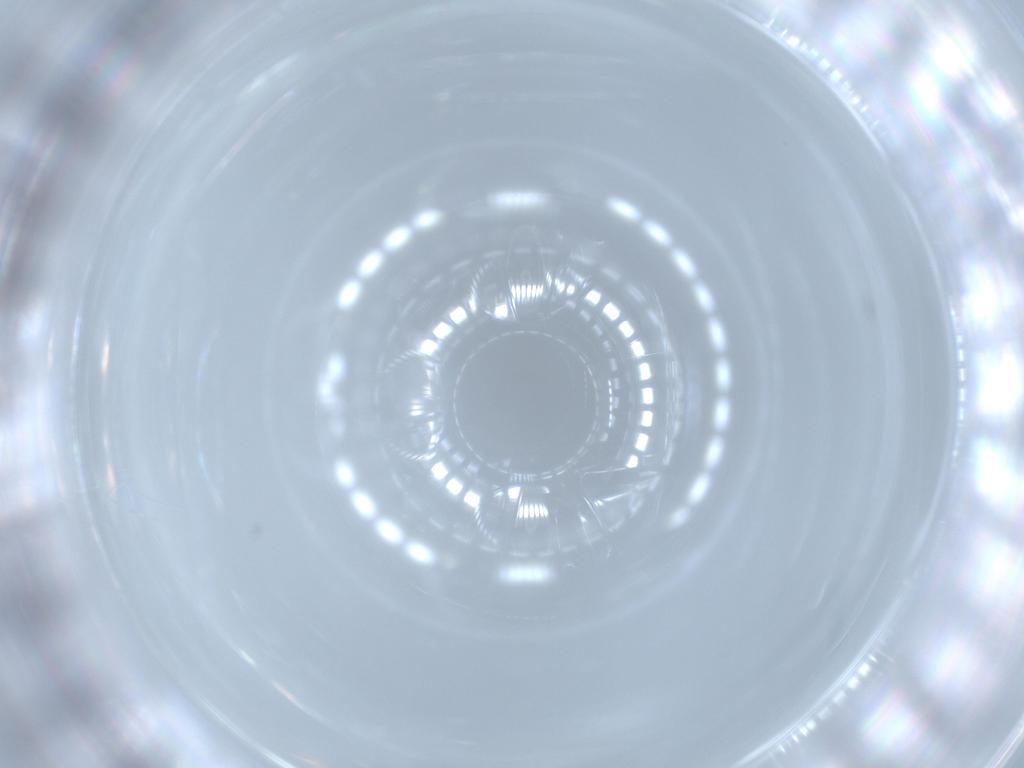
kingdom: Animalia
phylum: Arthropoda
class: Insecta
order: Diptera
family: Dolichopodidae
